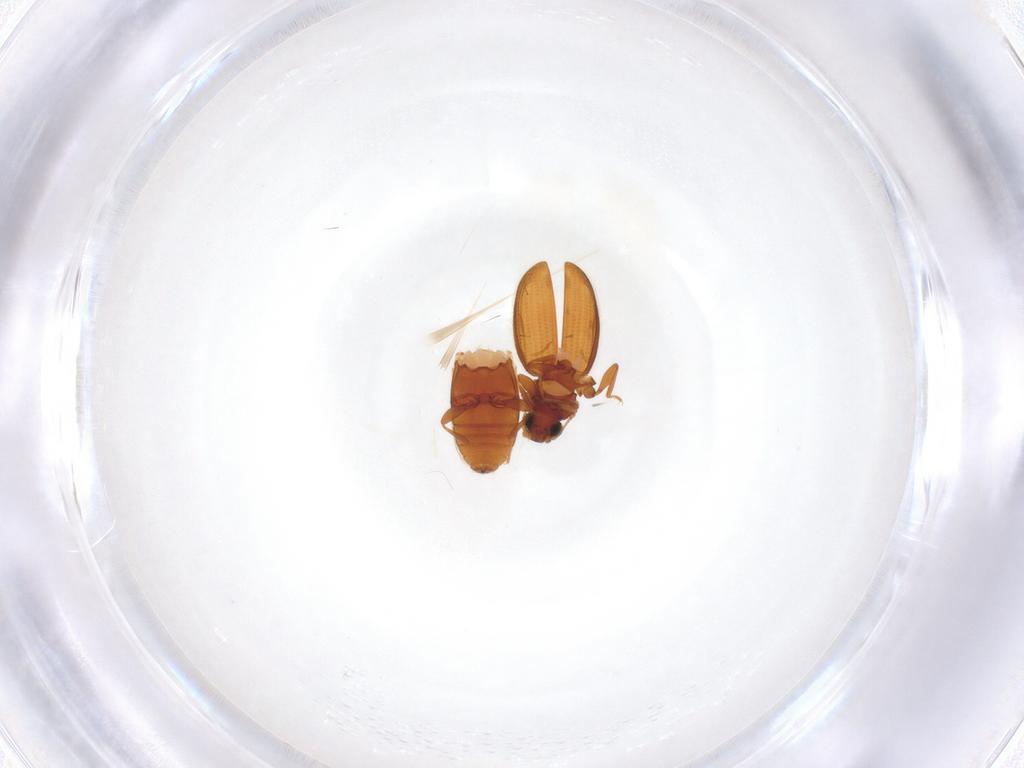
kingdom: Animalia
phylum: Arthropoda
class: Insecta
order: Coleoptera
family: Latridiidae
